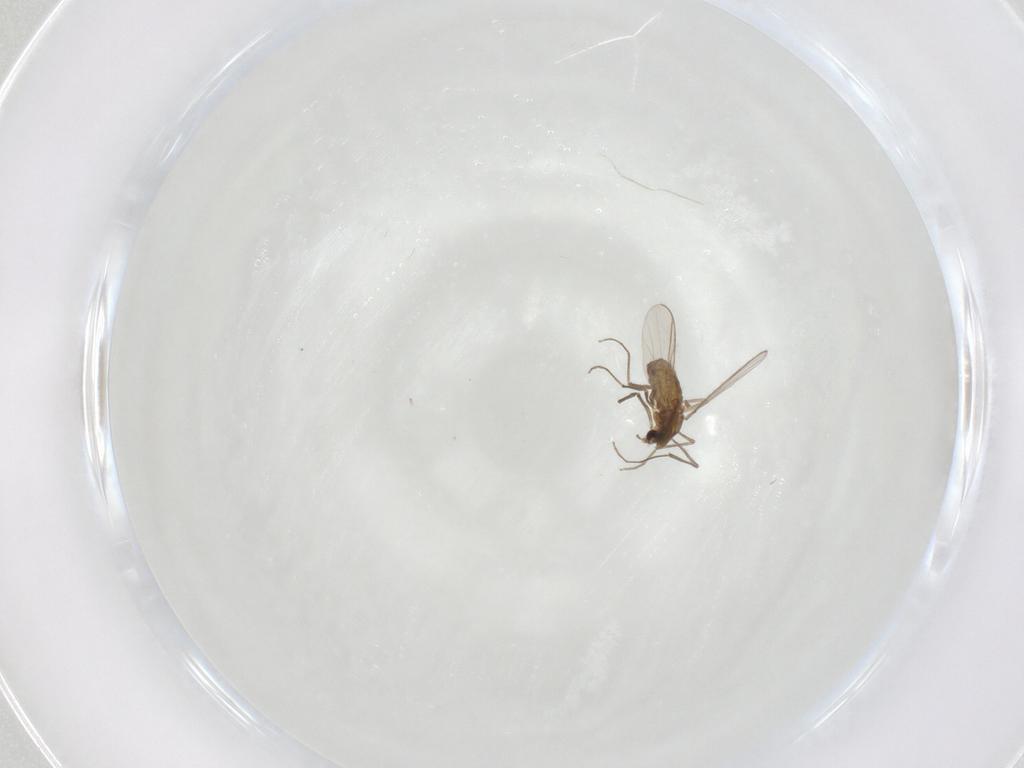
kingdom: Animalia
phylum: Arthropoda
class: Insecta
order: Diptera
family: Chironomidae
